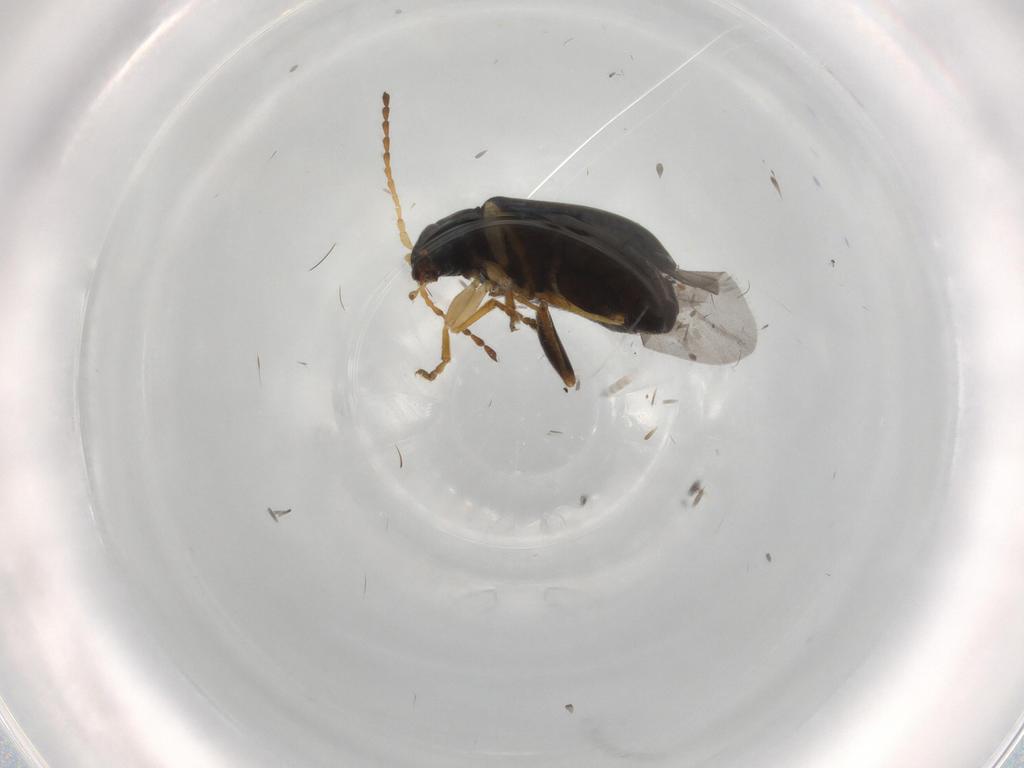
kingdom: Animalia
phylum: Arthropoda
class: Insecta
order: Coleoptera
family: Chrysomelidae
